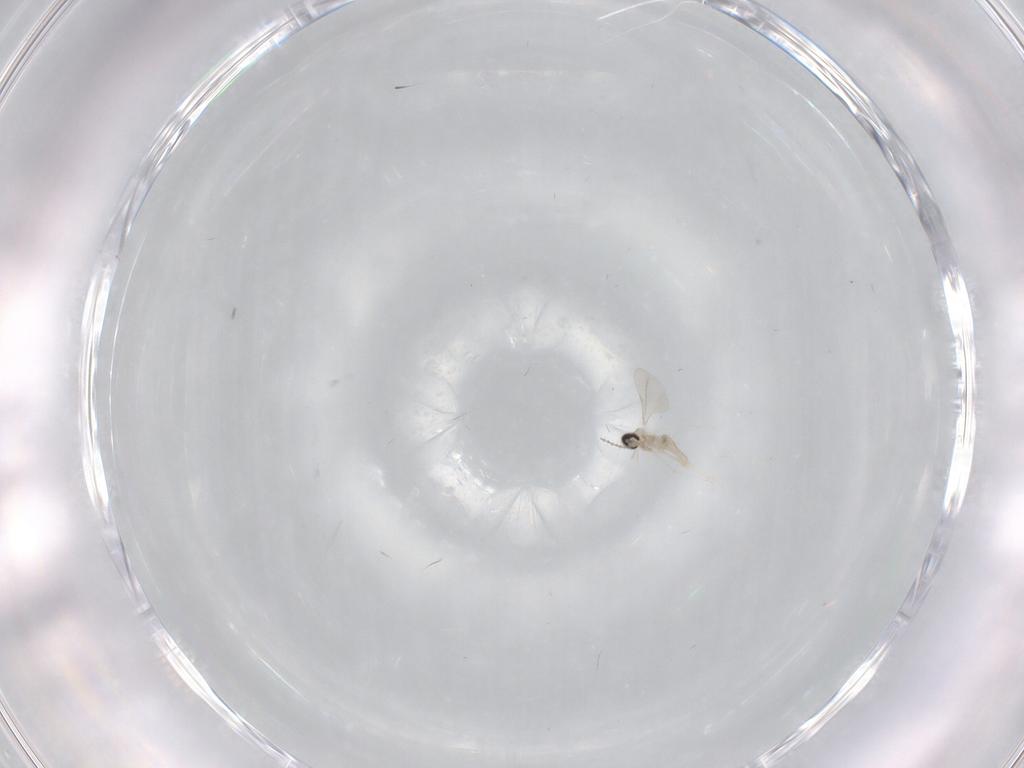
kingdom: Animalia
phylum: Arthropoda
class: Insecta
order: Diptera
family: Cecidomyiidae
